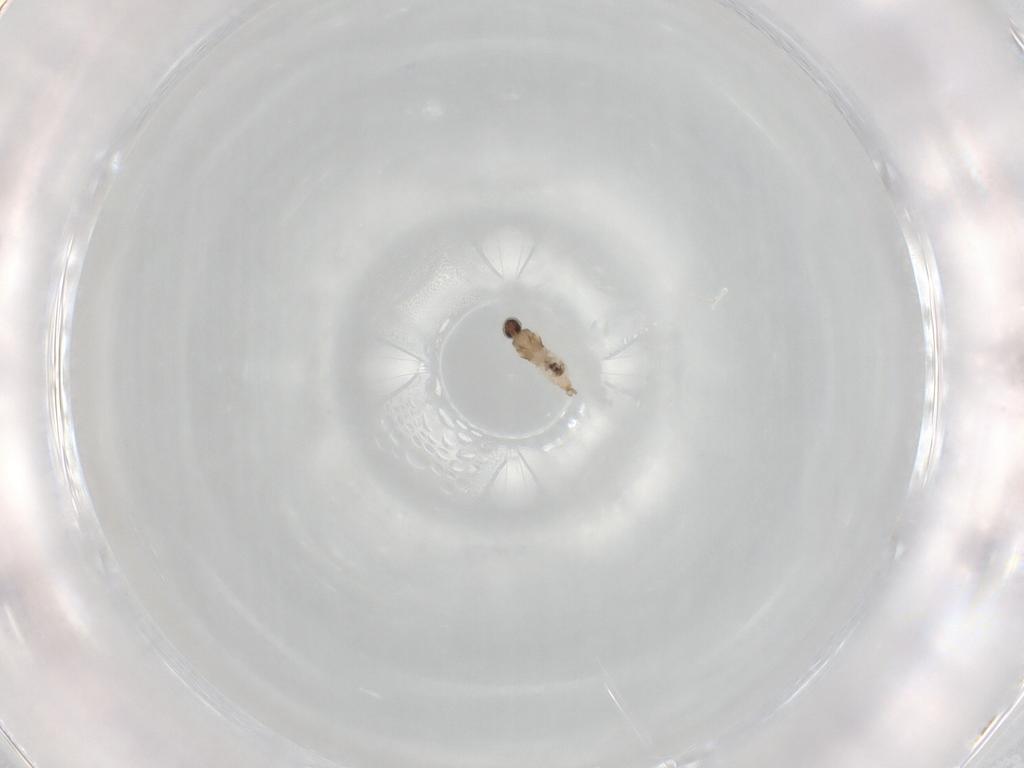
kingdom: Animalia
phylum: Arthropoda
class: Insecta
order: Diptera
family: Cecidomyiidae
